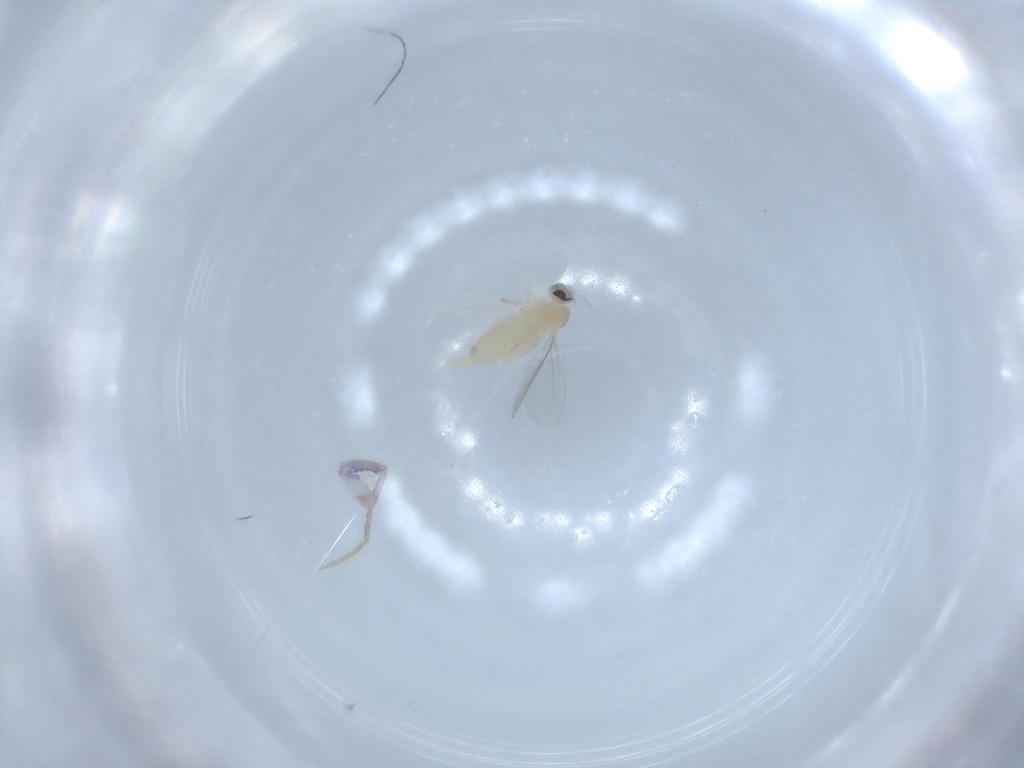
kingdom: Animalia
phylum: Arthropoda
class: Insecta
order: Diptera
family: Cecidomyiidae
